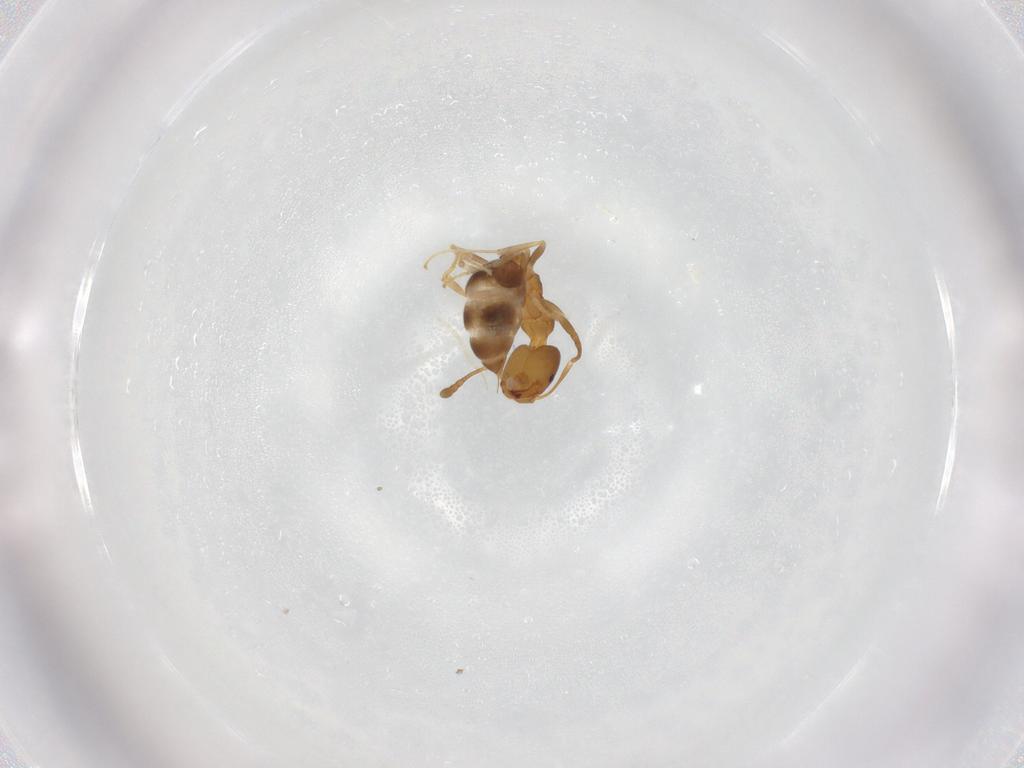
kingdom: Animalia
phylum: Arthropoda
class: Insecta
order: Hymenoptera
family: Formicidae
